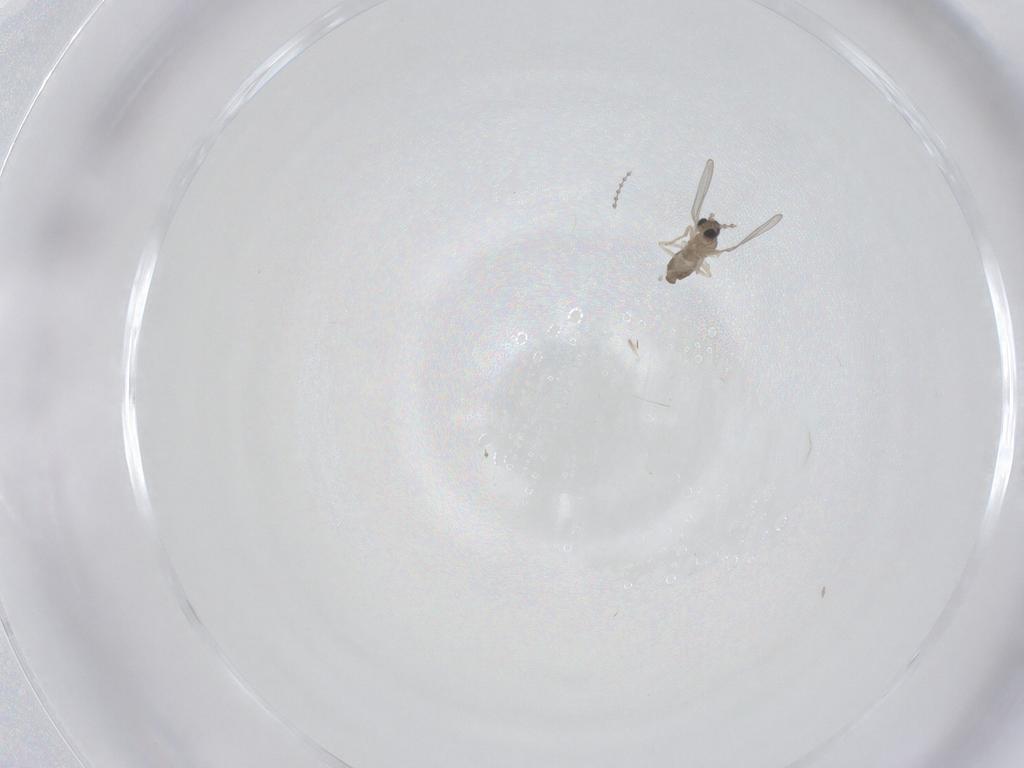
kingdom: Animalia
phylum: Arthropoda
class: Insecta
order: Diptera
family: Cecidomyiidae
